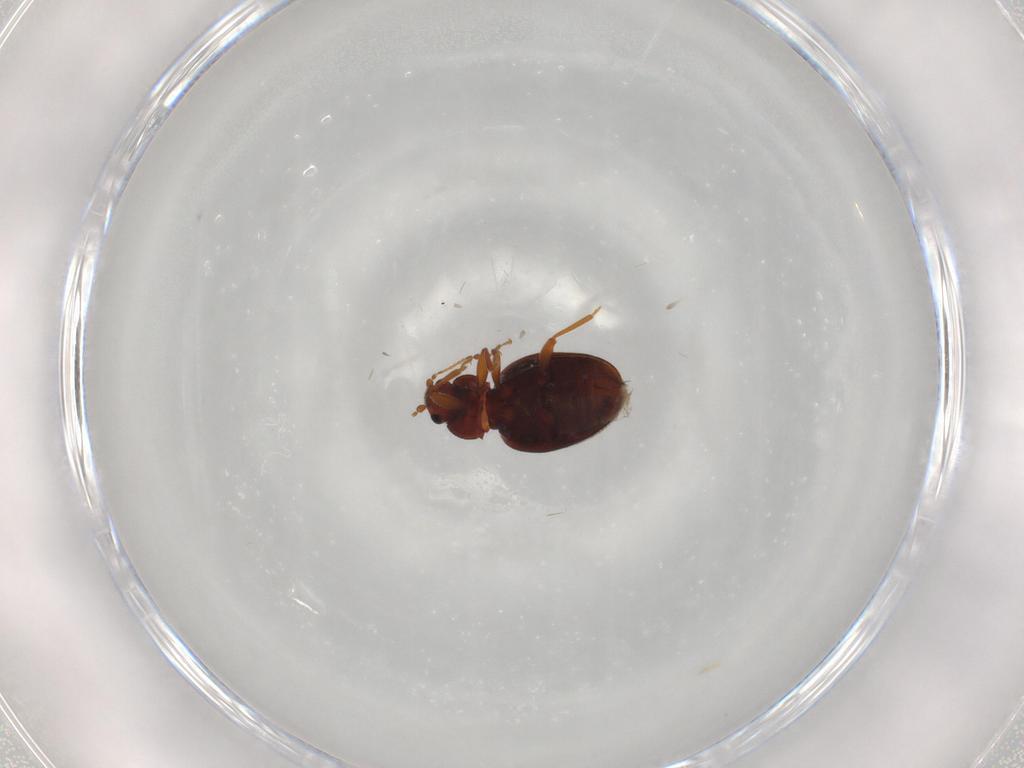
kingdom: Animalia
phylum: Arthropoda
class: Insecta
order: Coleoptera
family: Latridiidae
